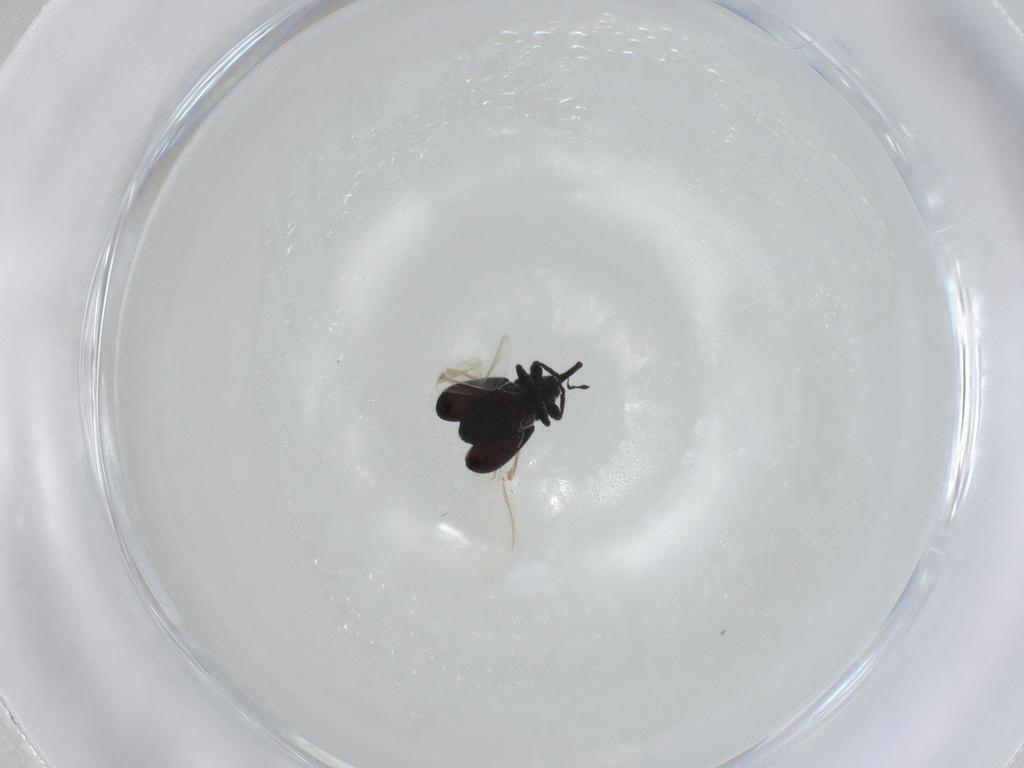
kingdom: Animalia
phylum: Arthropoda
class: Insecta
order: Coleoptera
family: Curculionidae
